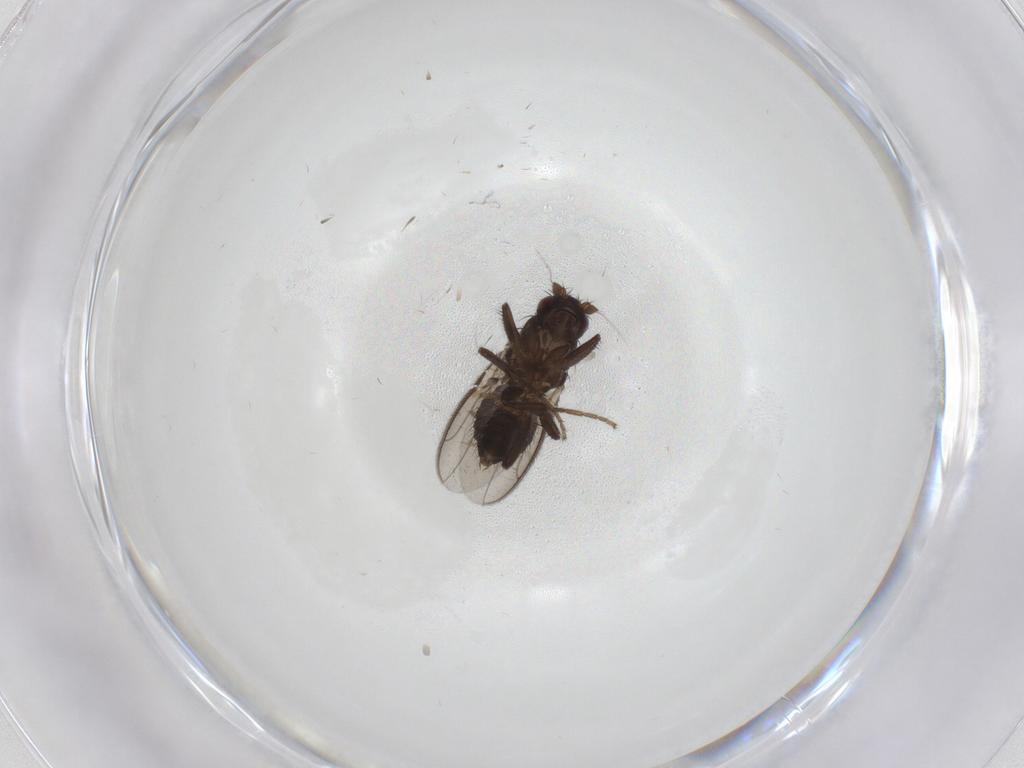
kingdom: Animalia
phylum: Arthropoda
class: Insecta
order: Diptera
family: Sphaeroceridae
